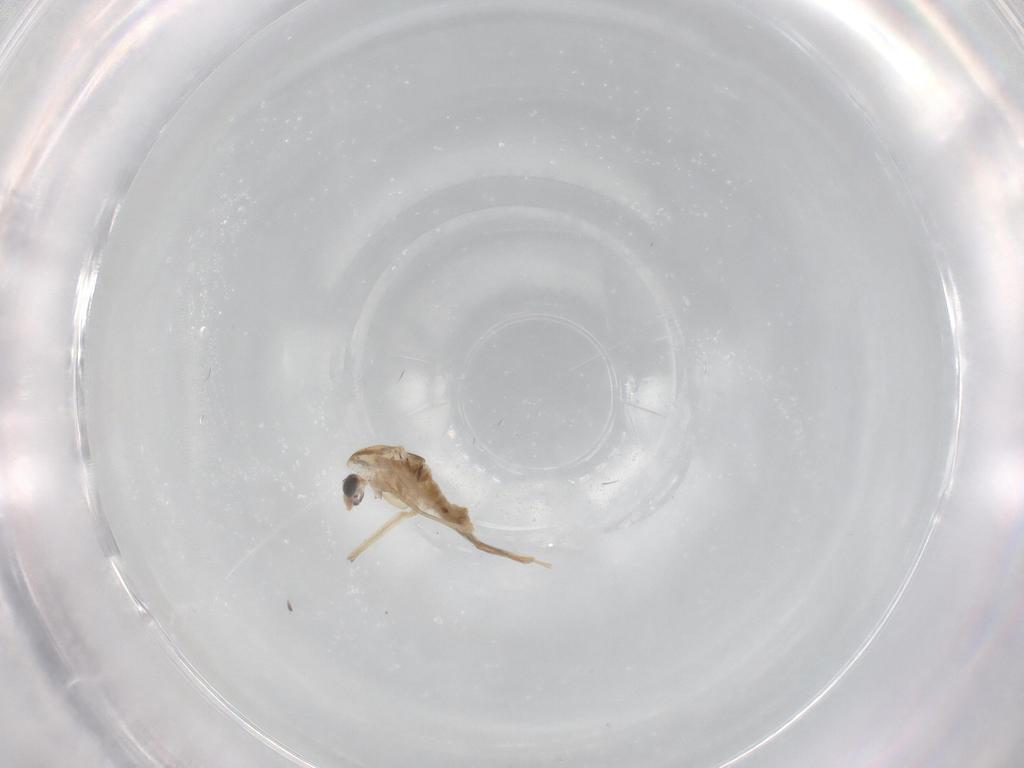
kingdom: Animalia
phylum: Arthropoda
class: Insecta
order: Diptera
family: Chironomidae
